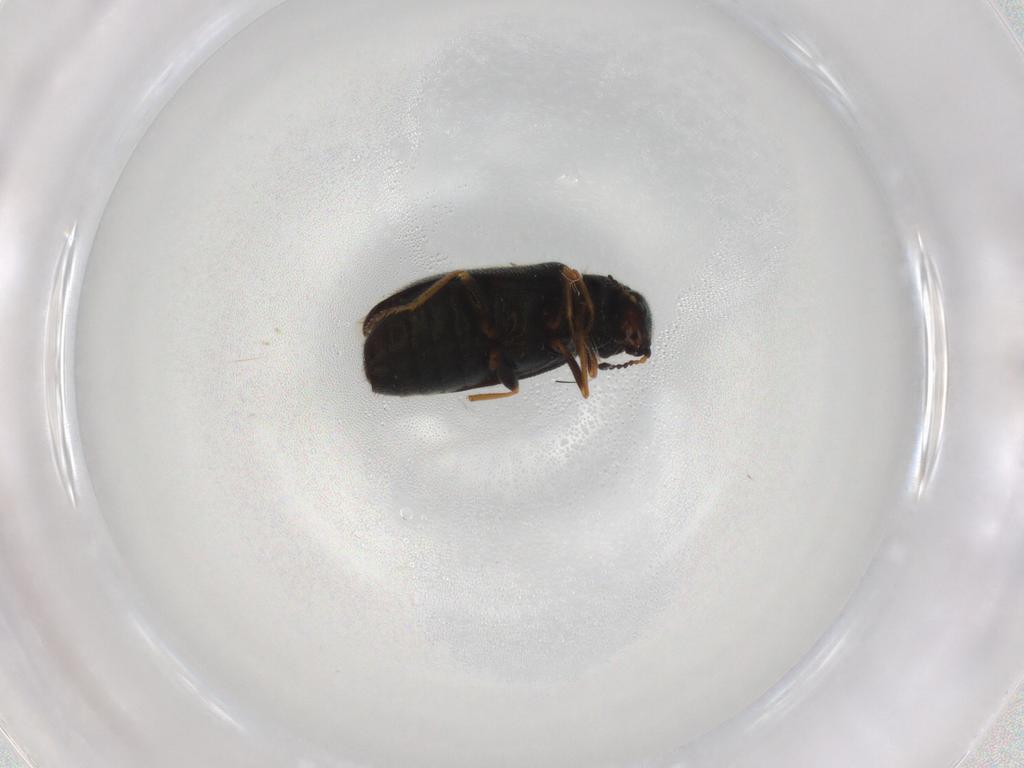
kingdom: Animalia
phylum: Arthropoda
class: Insecta
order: Coleoptera
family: Dasytidae
